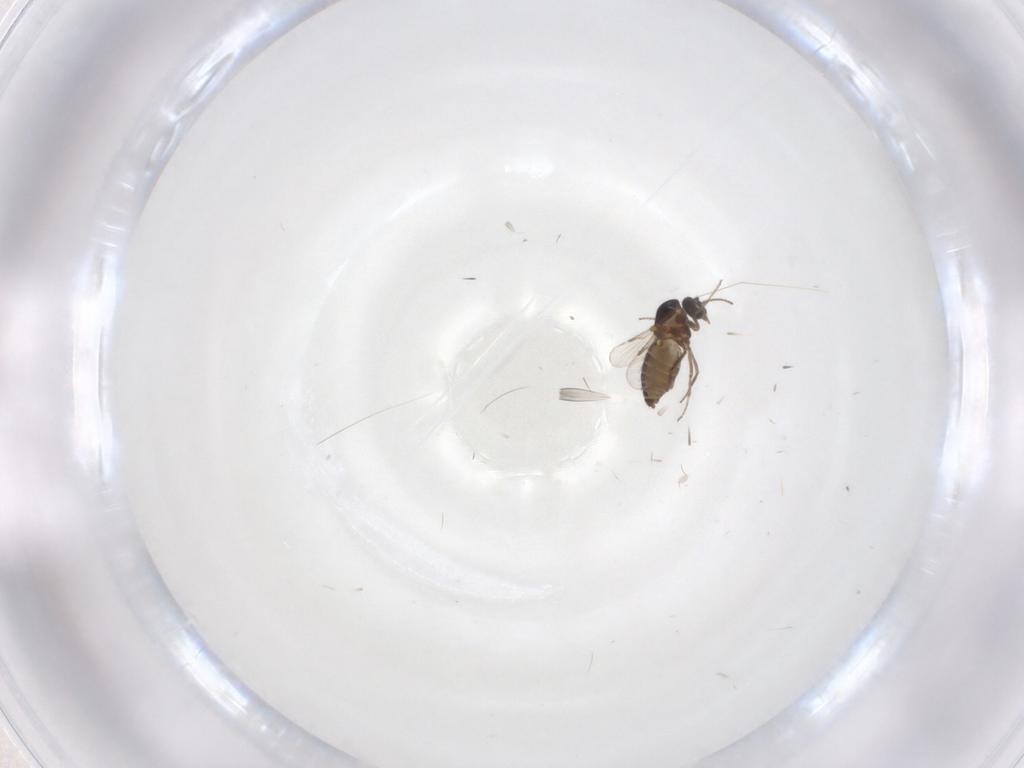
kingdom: Animalia
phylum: Arthropoda
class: Insecta
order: Diptera
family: Ceratopogonidae
